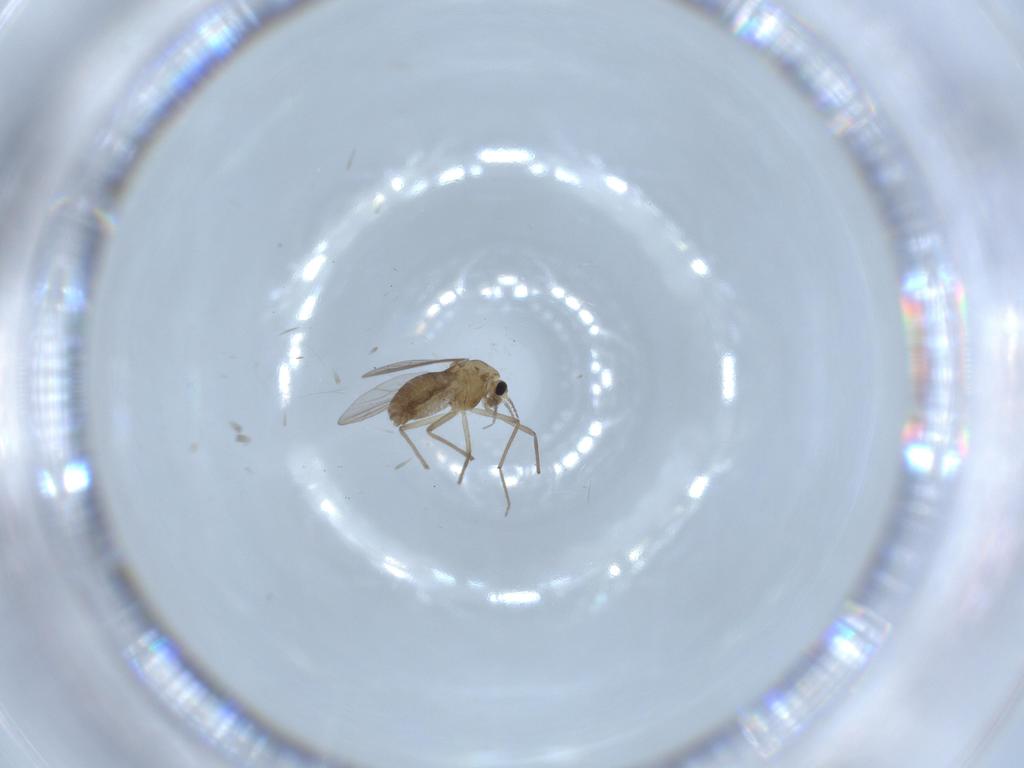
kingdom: Animalia
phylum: Arthropoda
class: Insecta
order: Diptera
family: Ceratopogonidae
